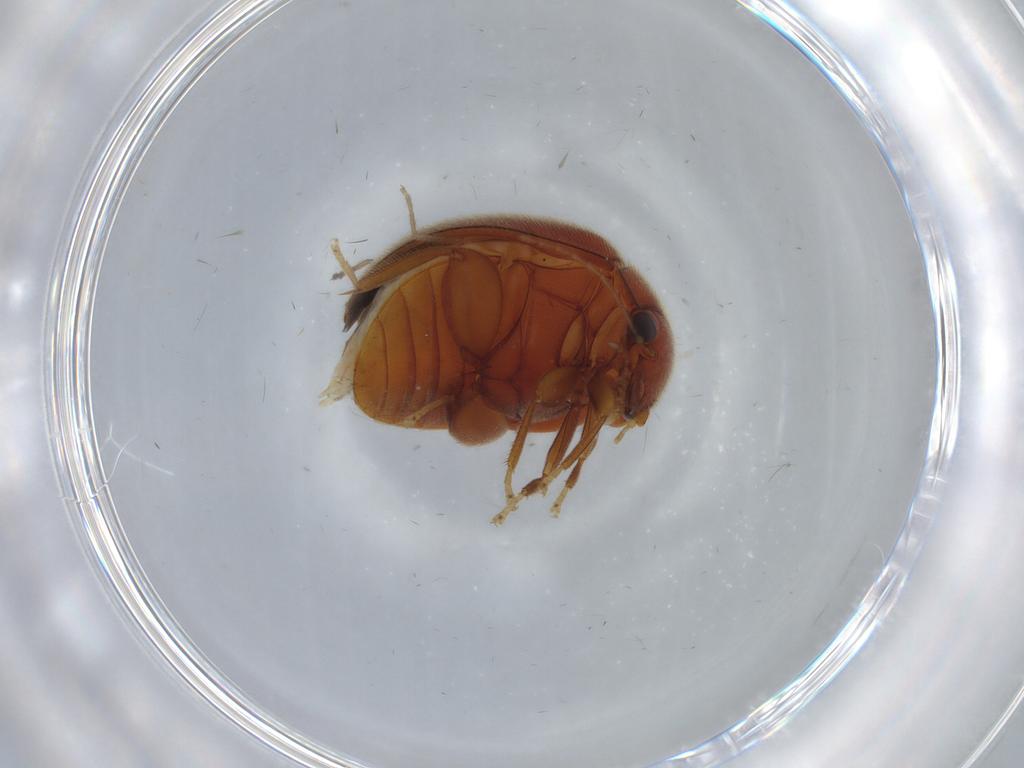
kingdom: Animalia
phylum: Arthropoda
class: Insecta
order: Coleoptera
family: Scirtidae
